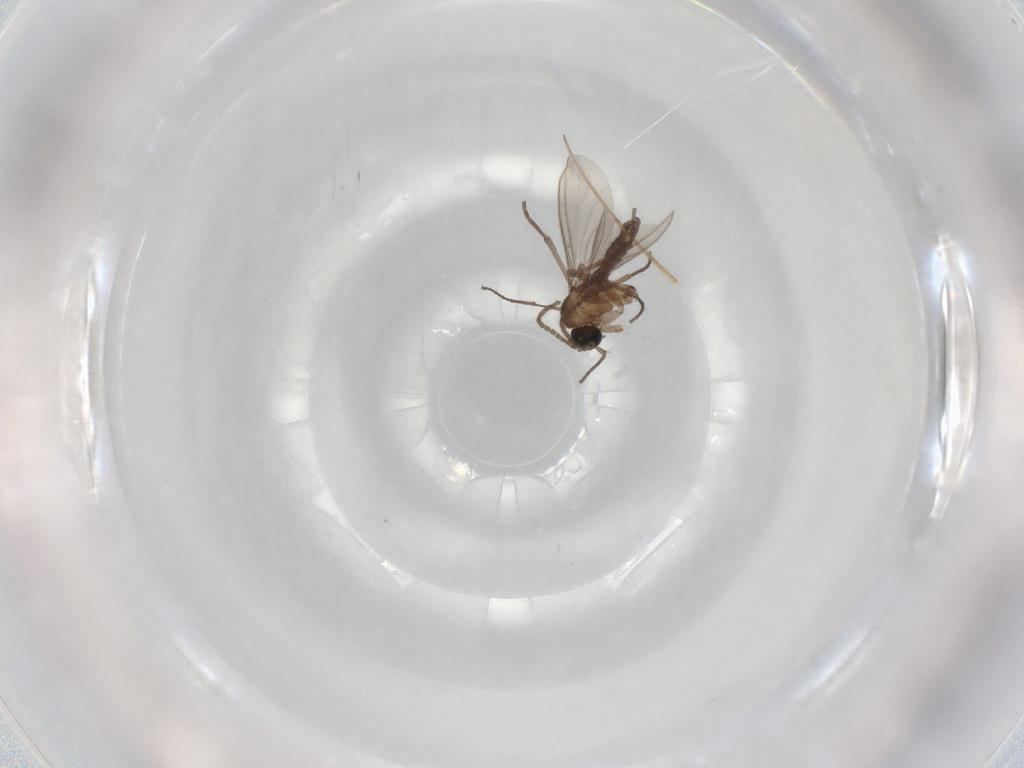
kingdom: Animalia
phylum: Arthropoda
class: Insecta
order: Diptera
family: Sciaridae
